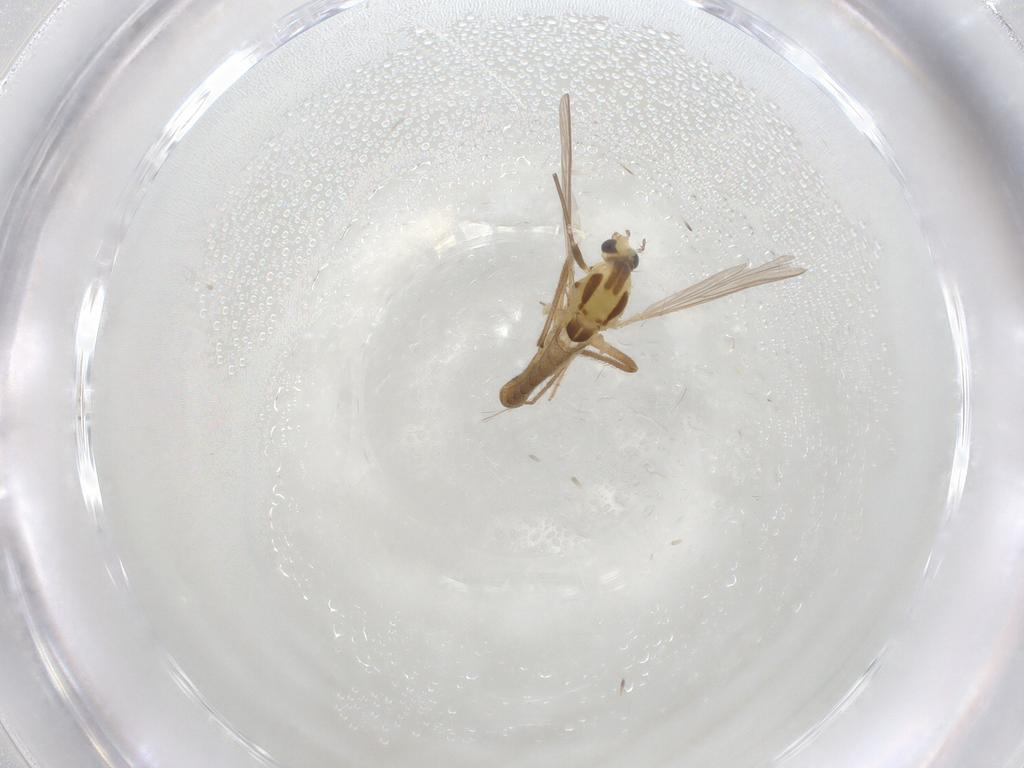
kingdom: Animalia
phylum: Arthropoda
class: Insecta
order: Diptera
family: Chironomidae
